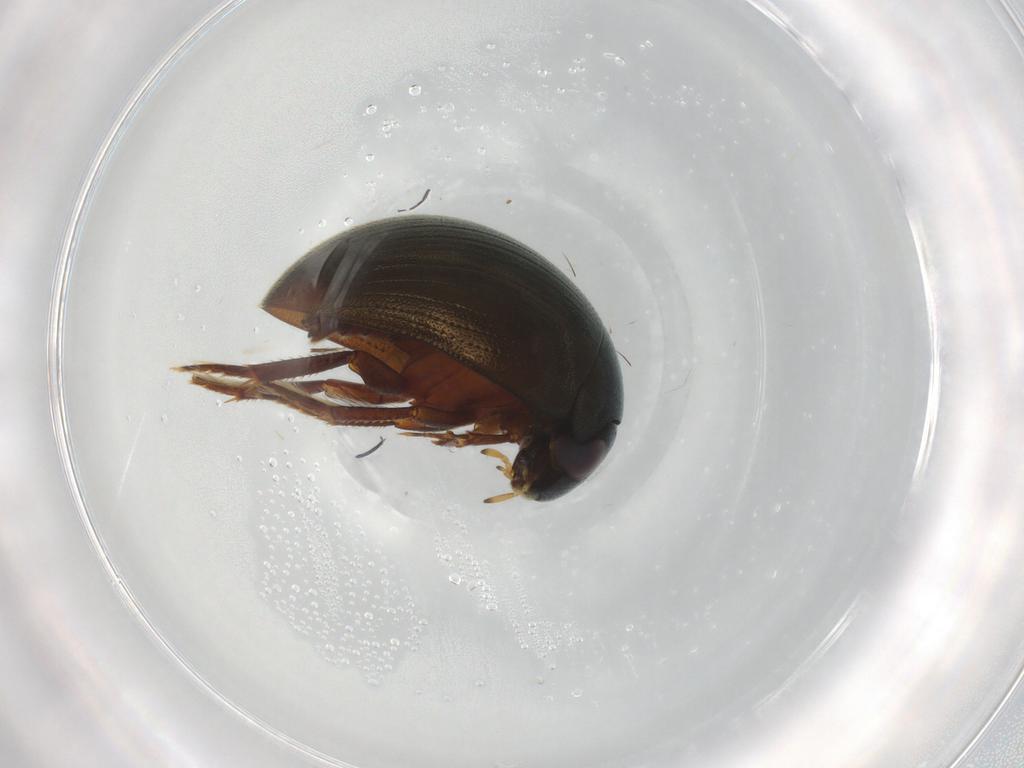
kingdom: Animalia
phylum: Arthropoda
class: Insecta
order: Coleoptera
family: Hydrophilidae
